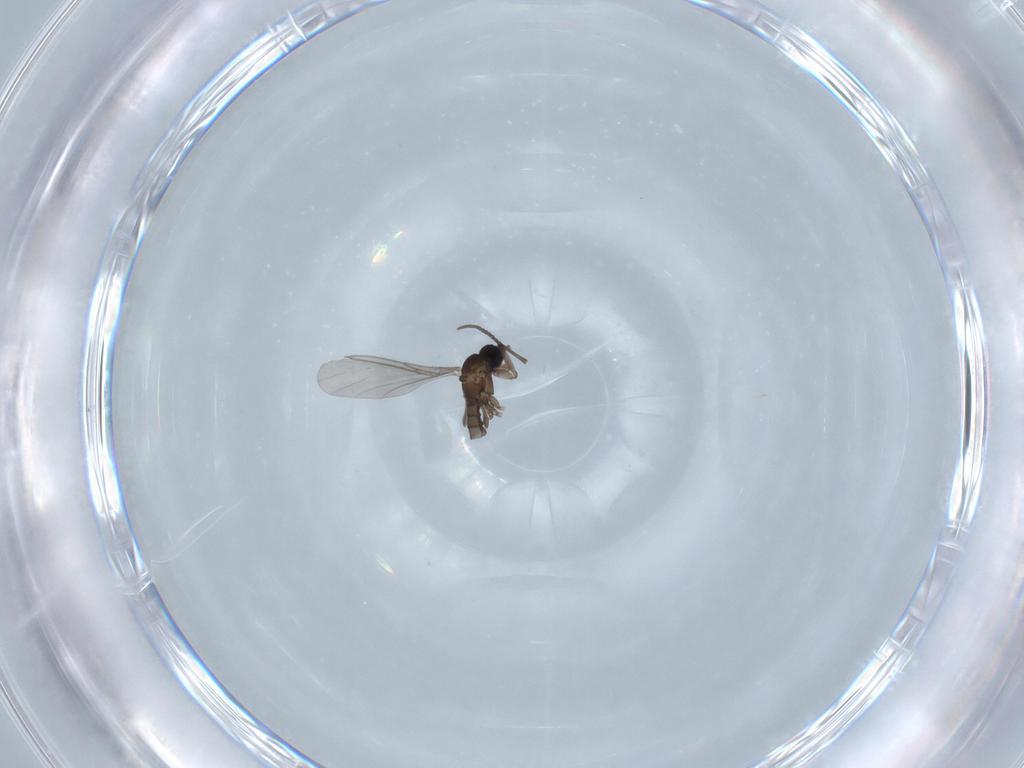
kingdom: Animalia
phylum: Arthropoda
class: Insecta
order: Diptera
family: Sciaridae
